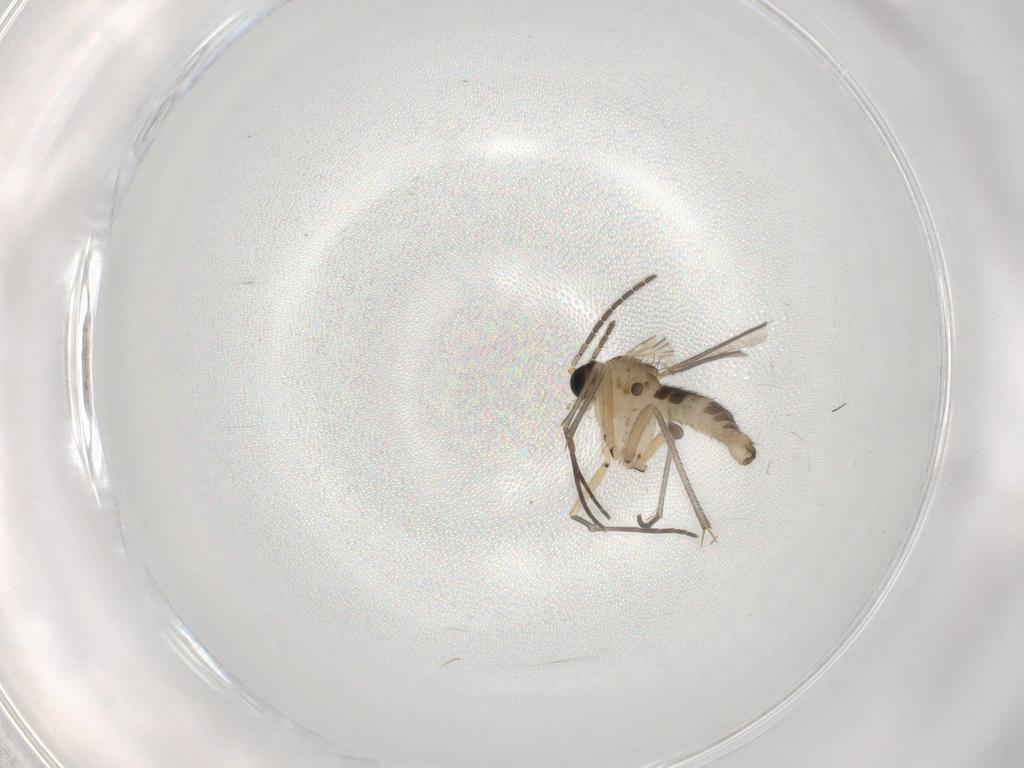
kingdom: Animalia
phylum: Arthropoda
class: Insecta
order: Diptera
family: Sciaridae
